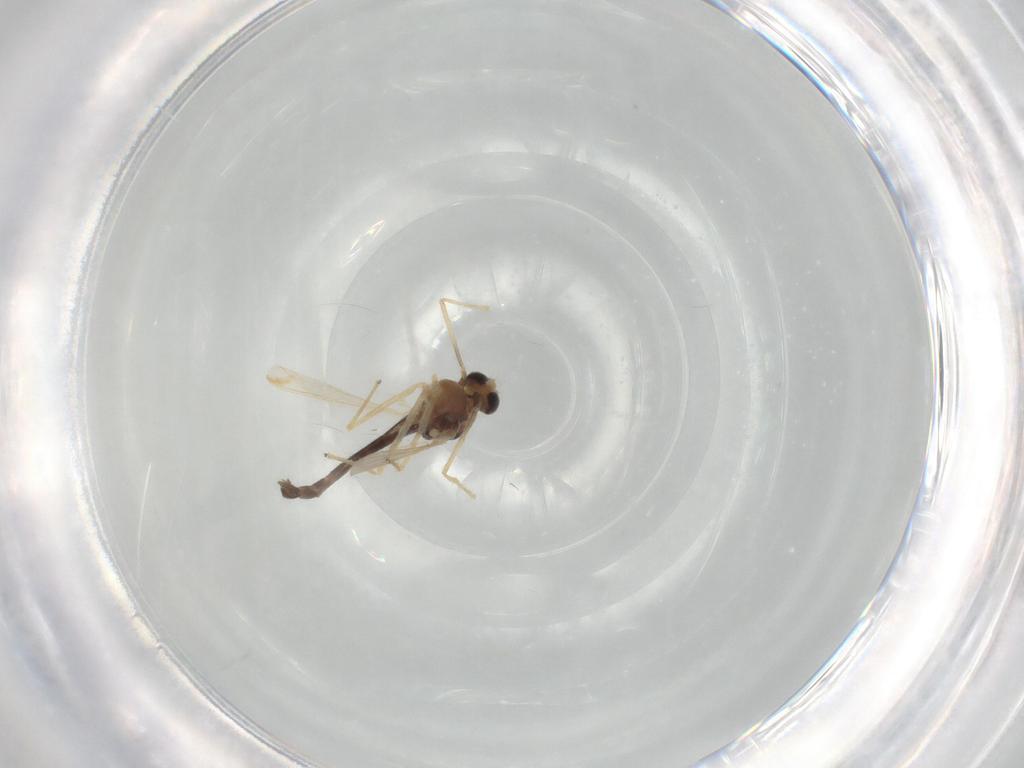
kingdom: Animalia
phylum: Arthropoda
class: Insecta
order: Diptera
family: Chironomidae
